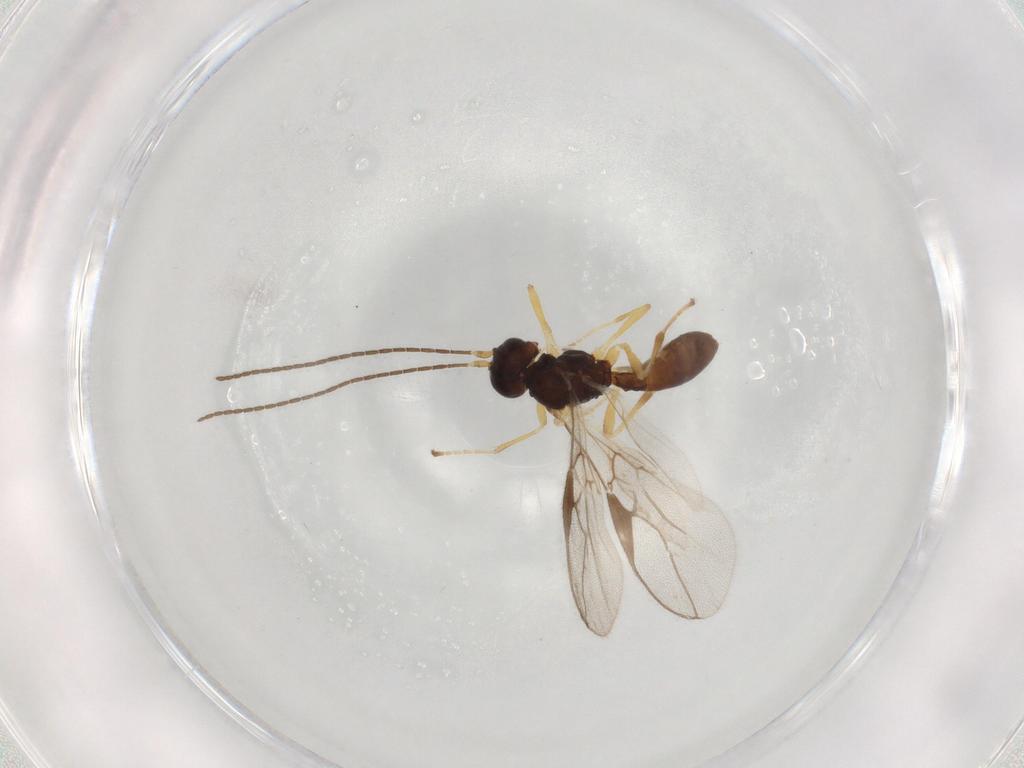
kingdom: Animalia
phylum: Arthropoda
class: Insecta
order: Hymenoptera
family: Braconidae
